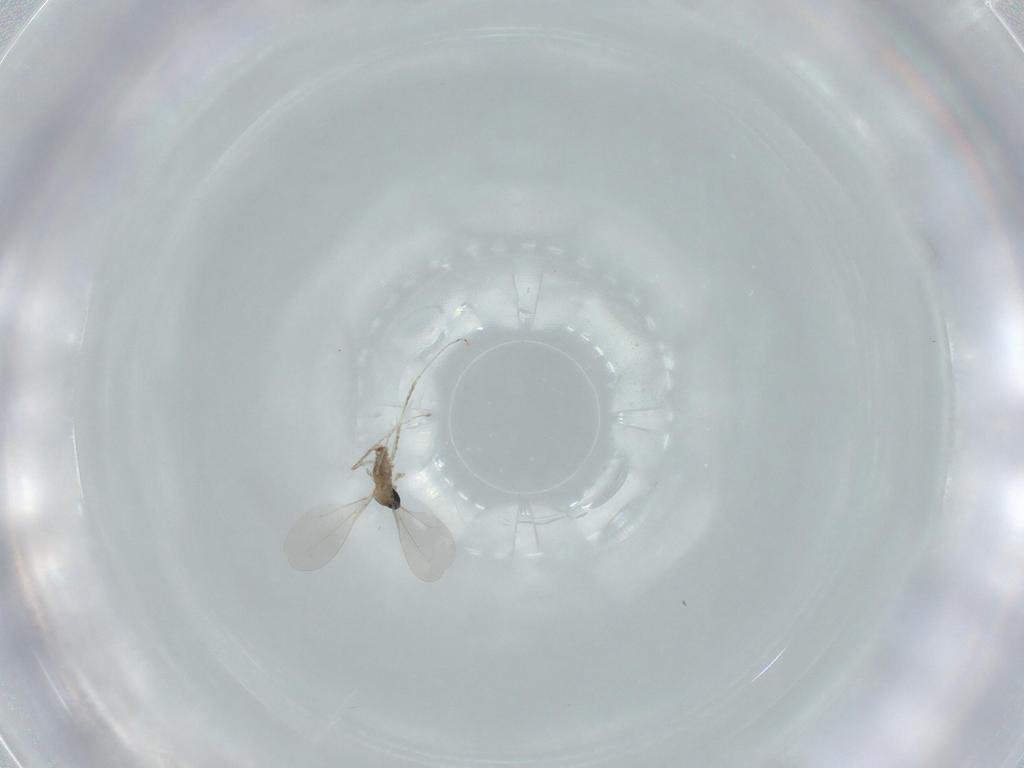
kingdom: Animalia
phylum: Arthropoda
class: Insecta
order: Diptera
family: Cecidomyiidae
